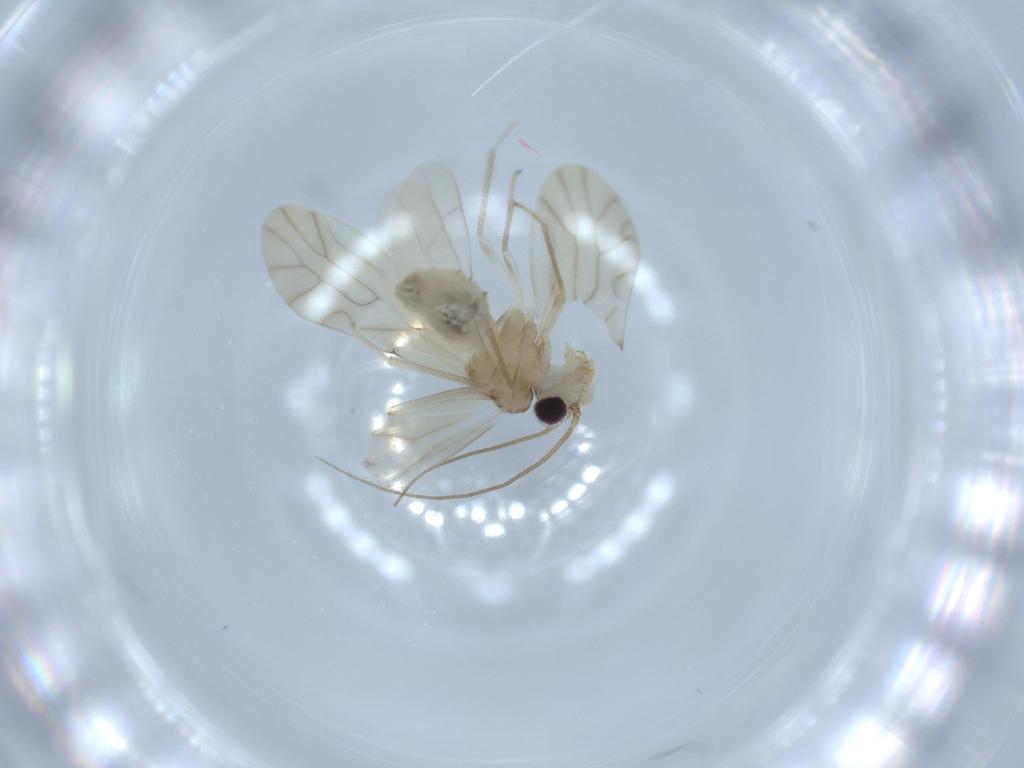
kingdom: Animalia
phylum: Arthropoda
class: Insecta
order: Psocodea
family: Caeciliusidae
